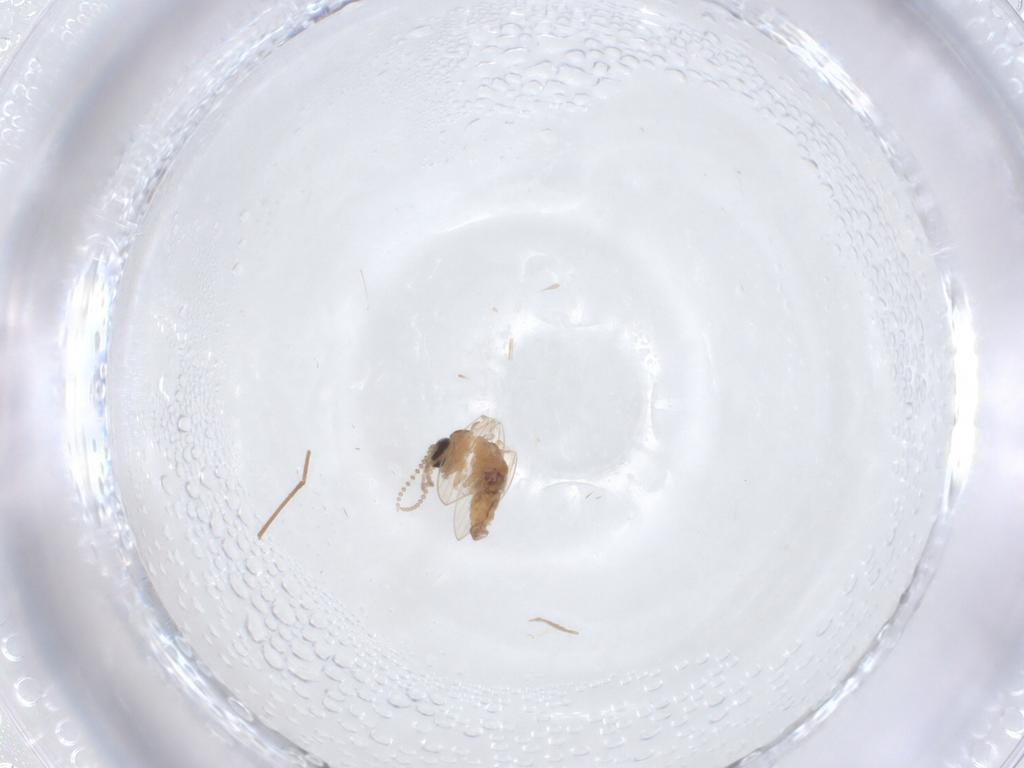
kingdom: Animalia
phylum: Arthropoda
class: Insecta
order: Diptera
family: Psychodidae
